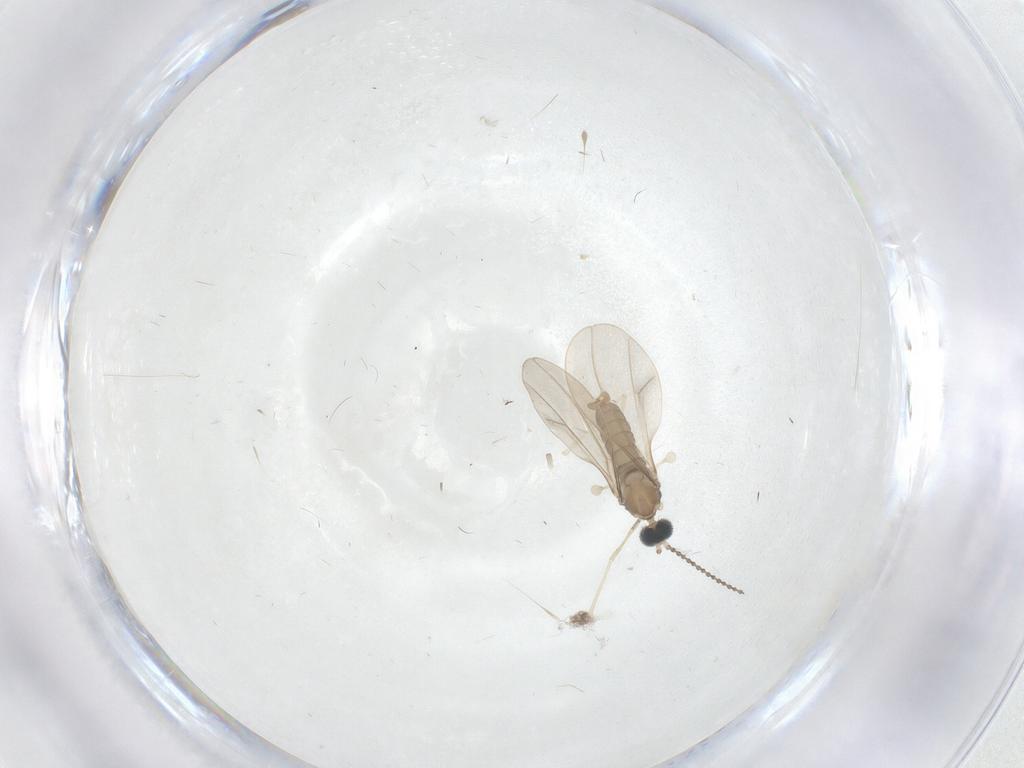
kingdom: Animalia
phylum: Arthropoda
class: Insecta
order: Diptera
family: Cecidomyiidae
